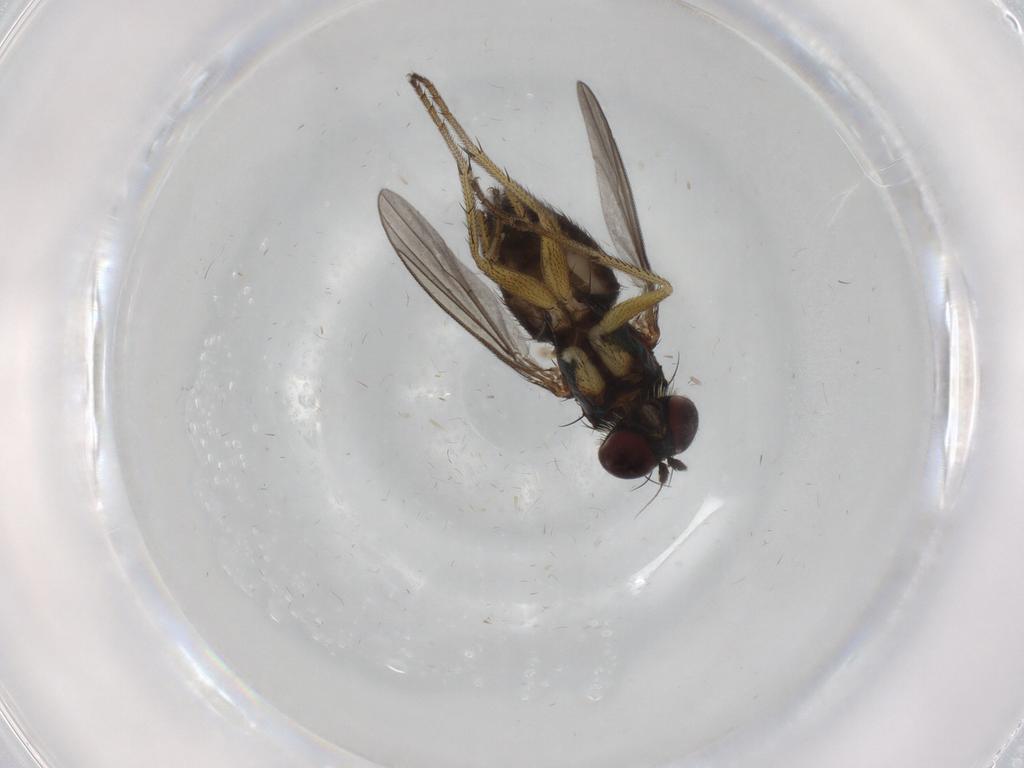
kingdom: Animalia
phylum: Arthropoda
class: Insecta
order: Diptera
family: Dolichopodidae
